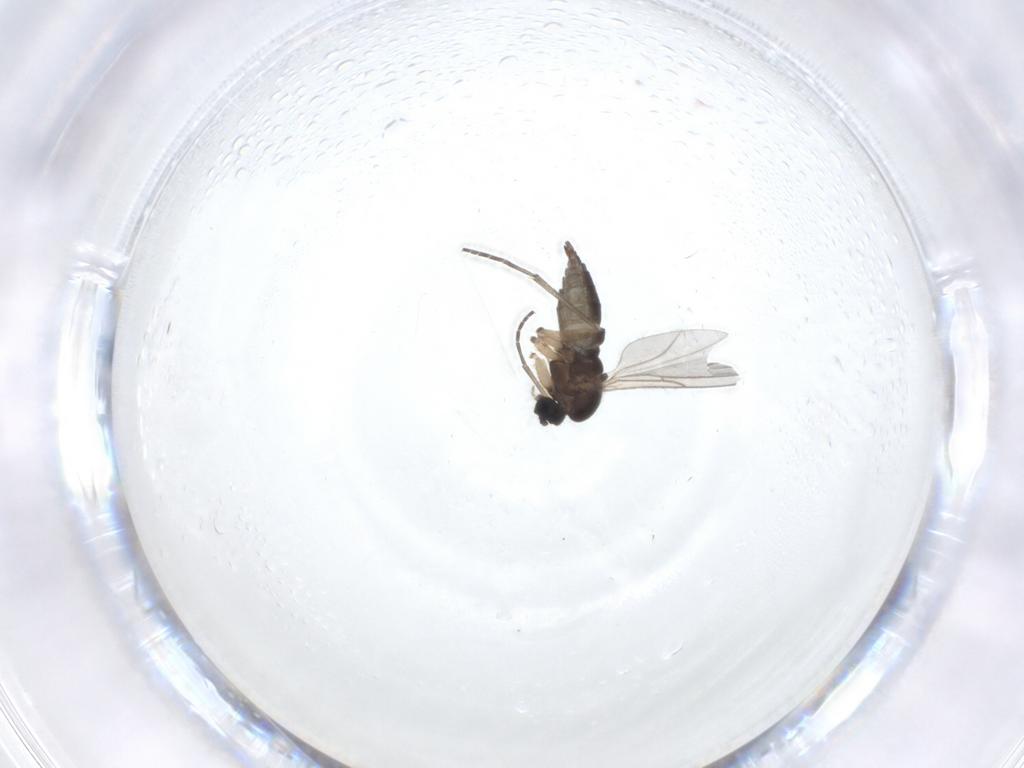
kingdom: Animalia
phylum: Arthropoda
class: Insecta
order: Diptera
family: Sciaridae
